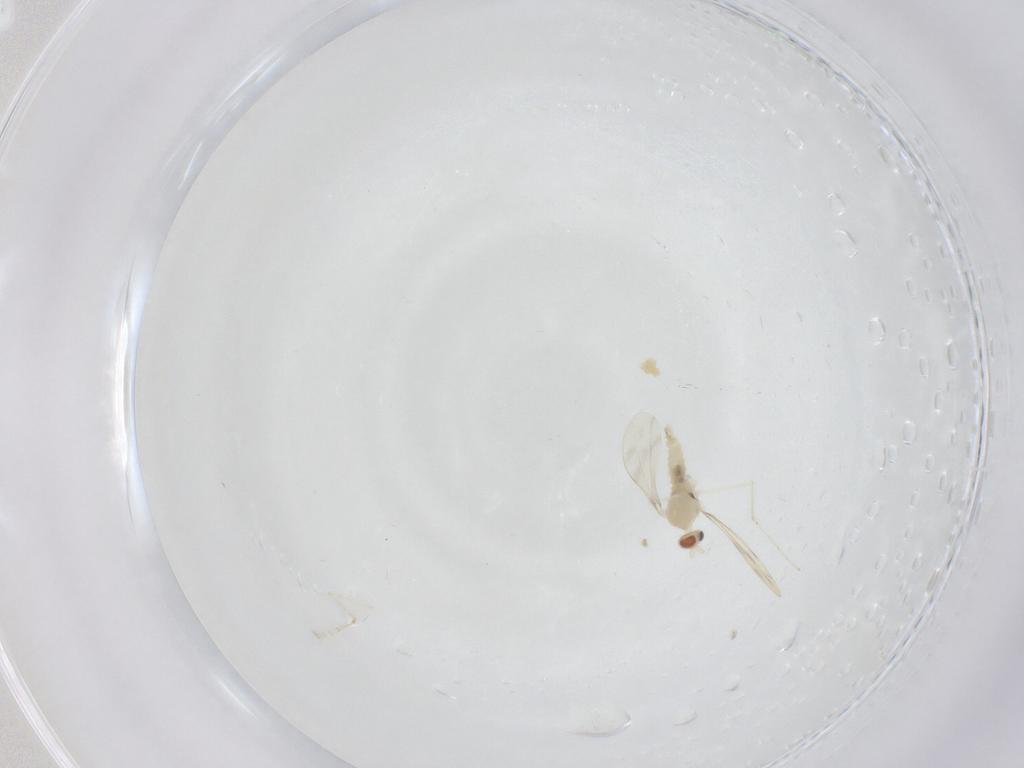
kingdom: Animalia
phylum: Arthropoda
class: Insecta
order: Diptera
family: Cecidomyiidae
